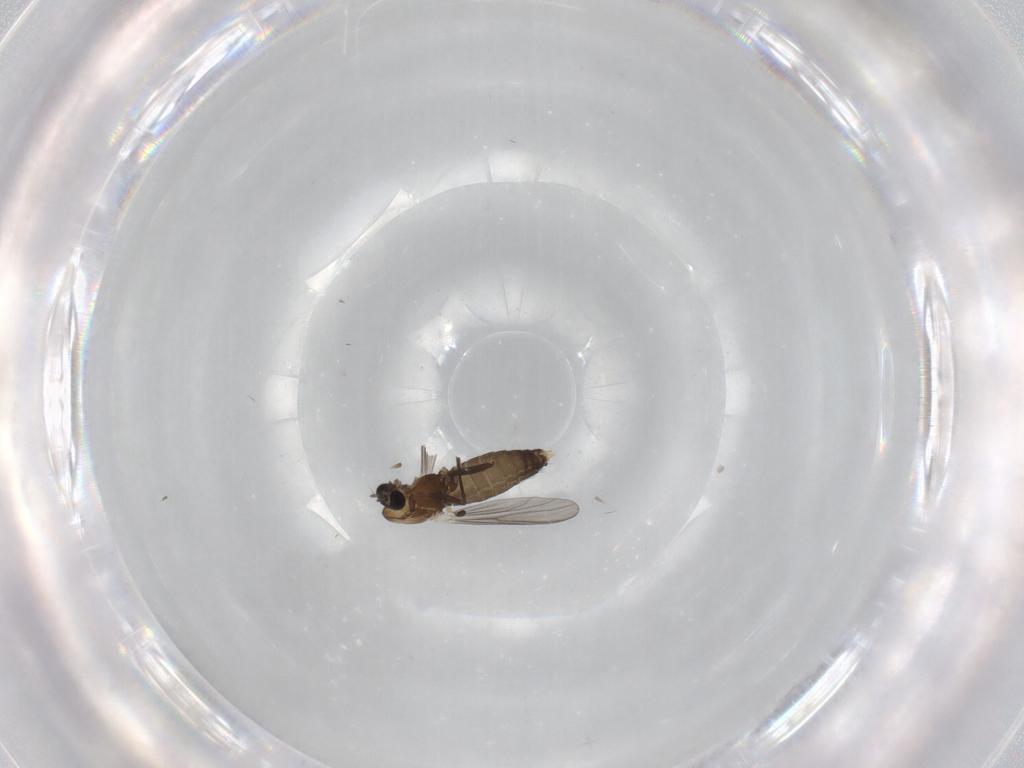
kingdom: Animalia
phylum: Arthropoda
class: Insecta
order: Diptera
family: Chironomidae
